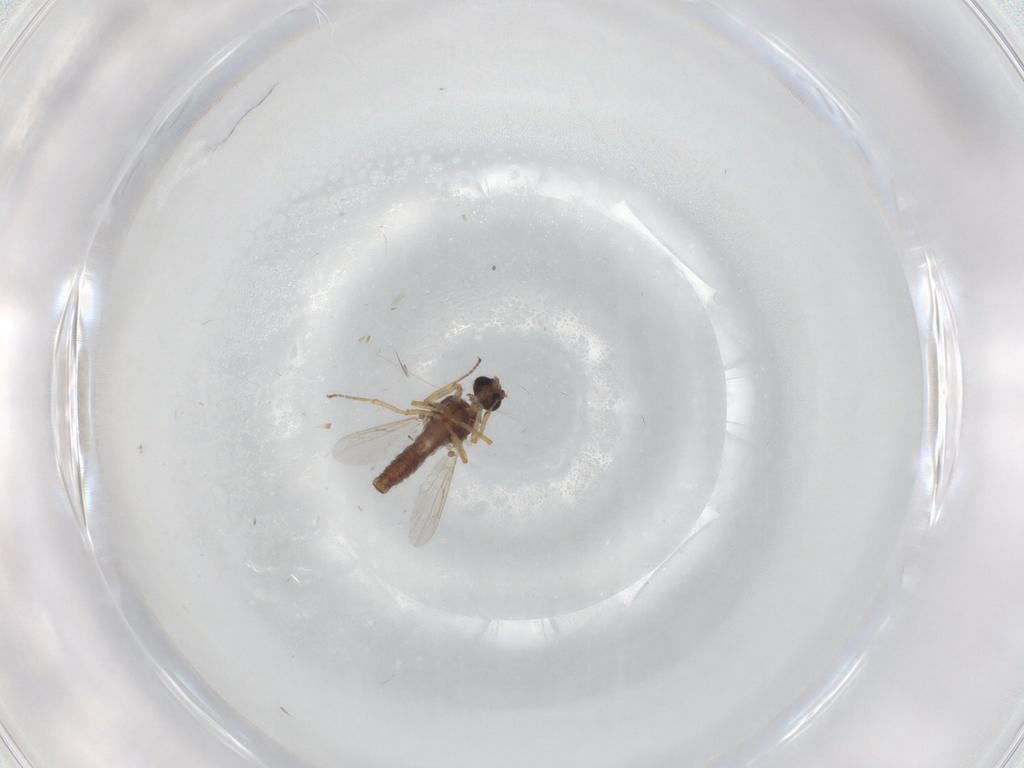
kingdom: Animalia
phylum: Arthropoda
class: Insecta
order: Diptera
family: Ceratopogonidae
